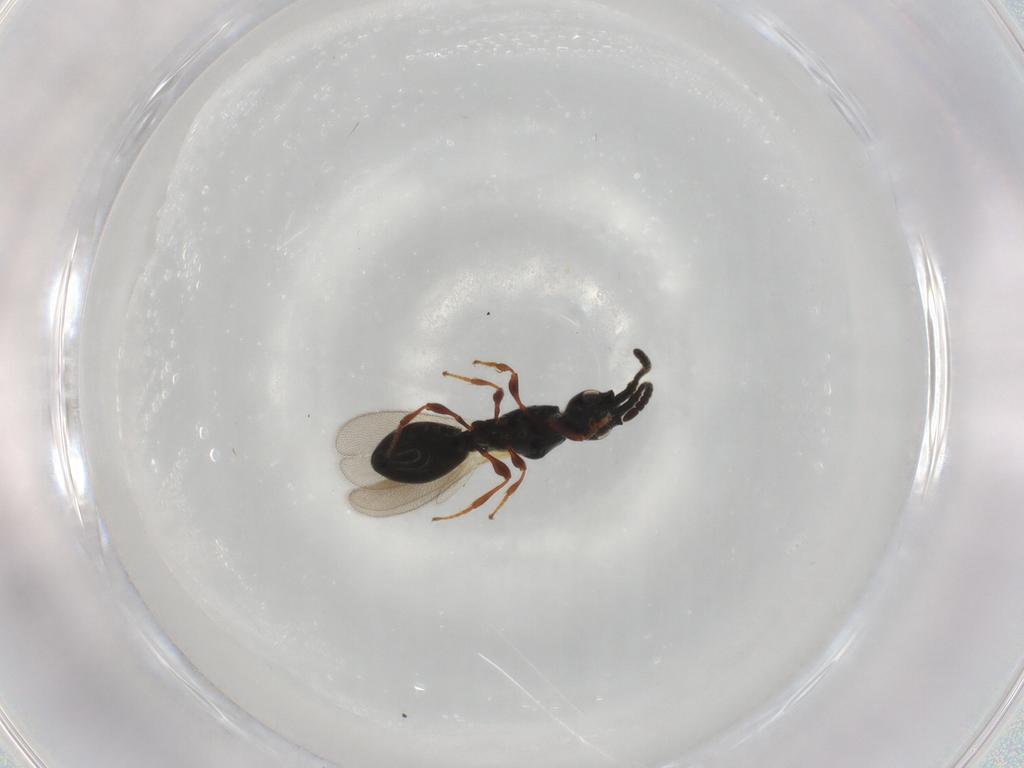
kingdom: Animalia
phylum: Arthropoda
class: Insecta
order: Hymenoptera
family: Diapriidae
